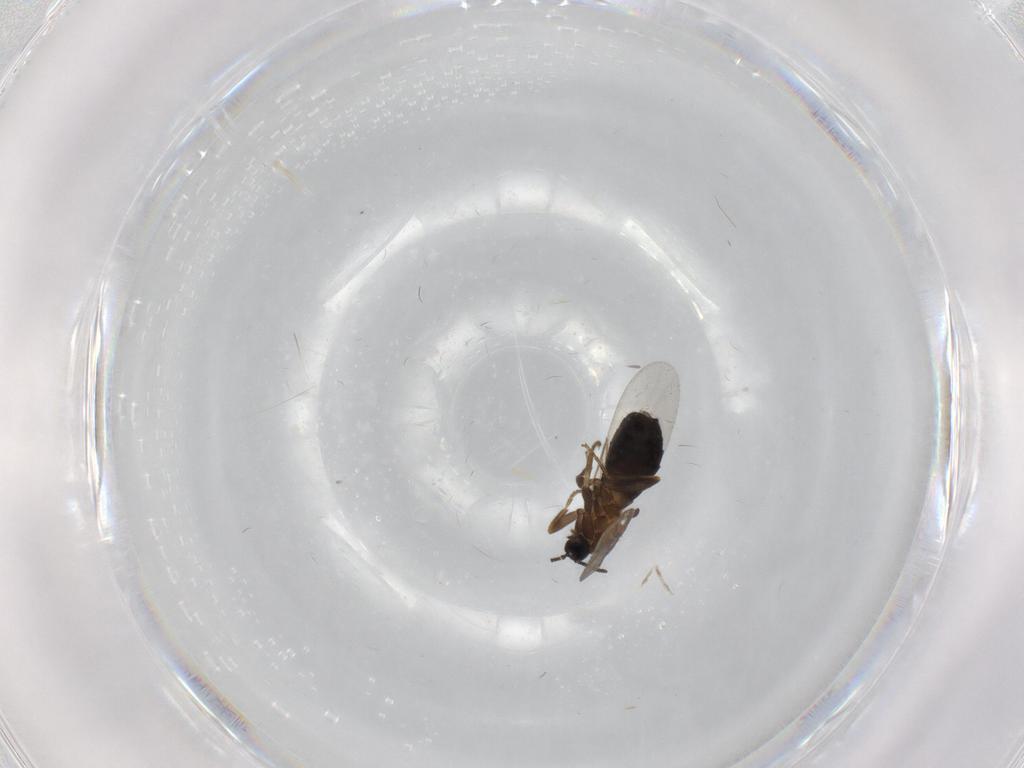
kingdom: Animalia
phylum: Arthropoda
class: Insecta
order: Diptera
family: Scatopsidae
